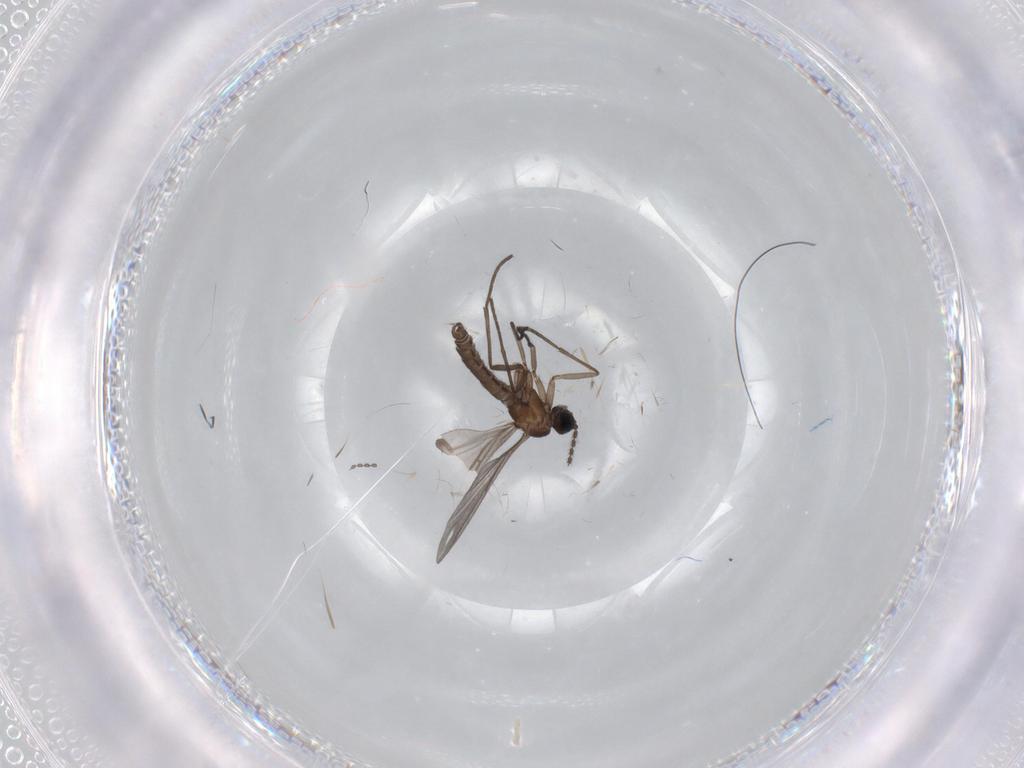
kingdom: Animalia
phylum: Arthropoda
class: Insecta
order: Diptera
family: Sciaridae
